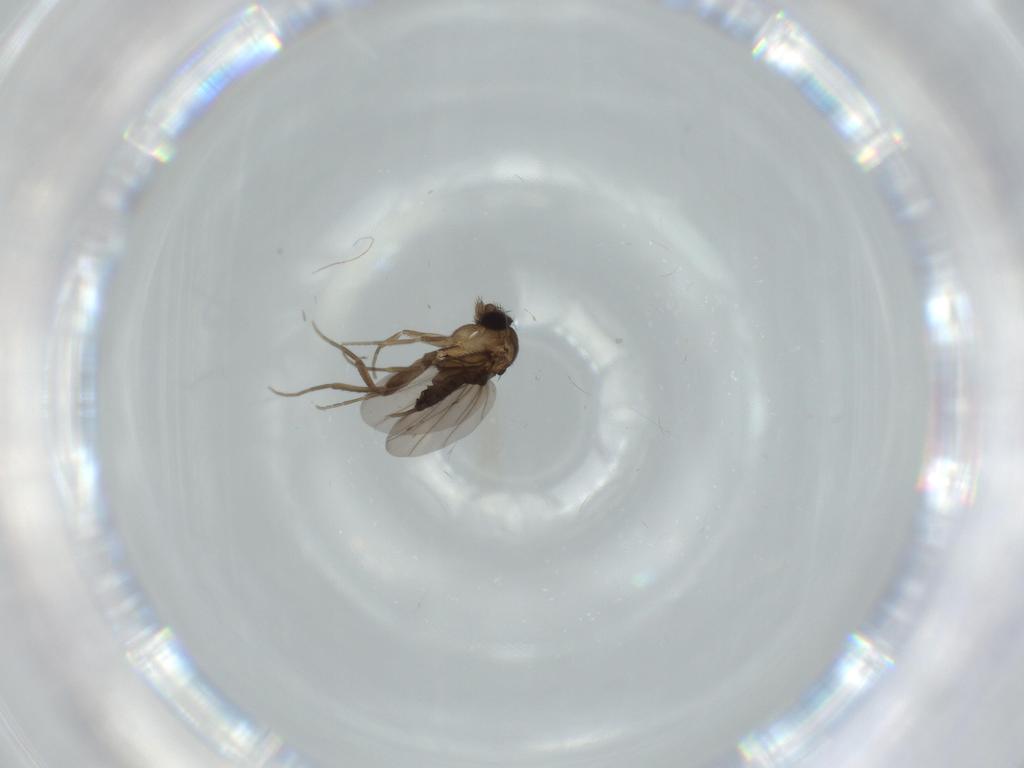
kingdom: Animalia
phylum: Arthropoda
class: Insecta
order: Diptera
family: Phoridae
